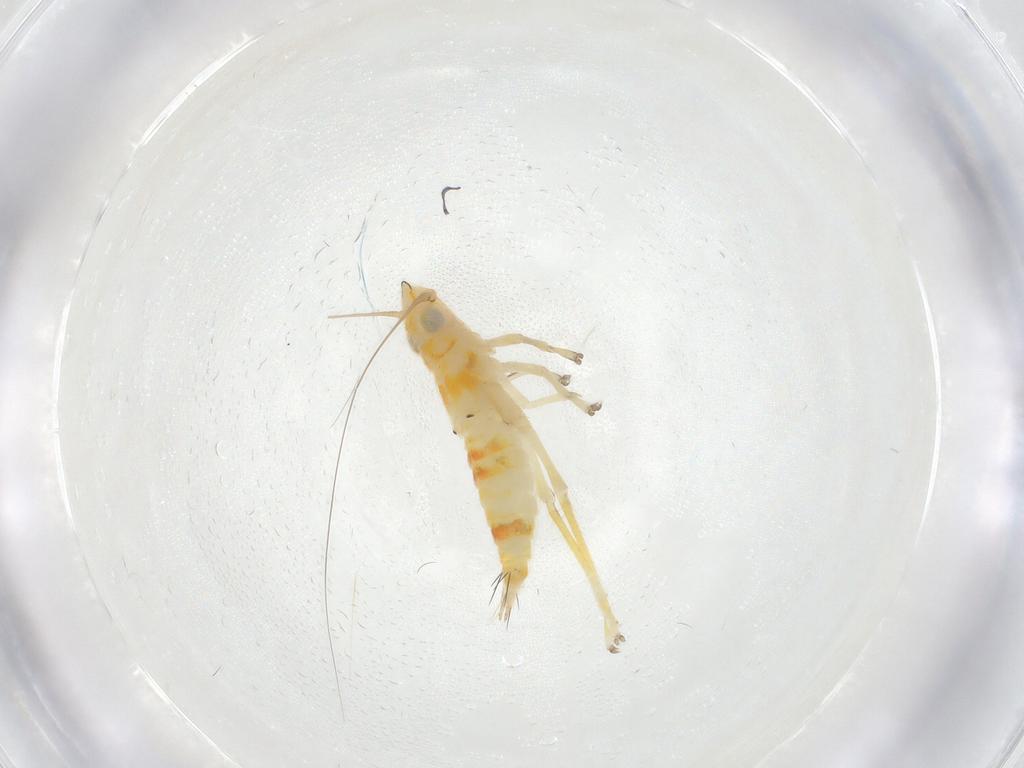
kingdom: Animalia
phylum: Arthropoda
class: Insecta
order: Hemiptera
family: Cicadellidae
